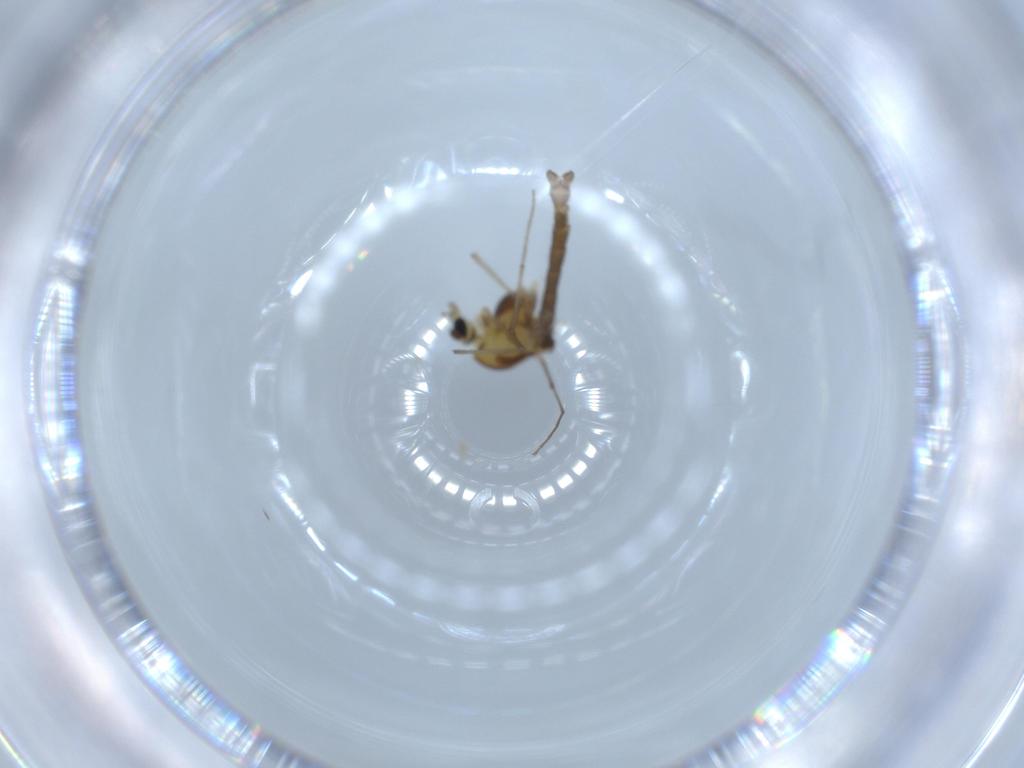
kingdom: Animalia
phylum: Arthropoda
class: Insecta
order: Diptera
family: Chironomidae
